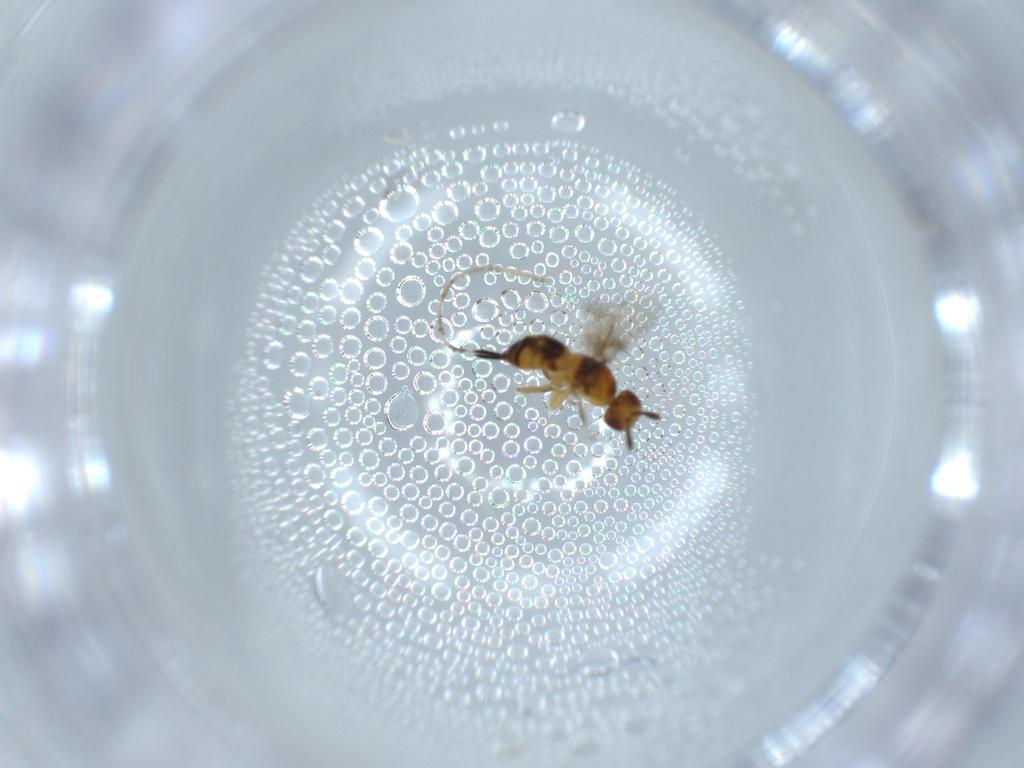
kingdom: Animalia
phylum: Arthropoda
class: Insecta
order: Hymenoptera
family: Torymidae
